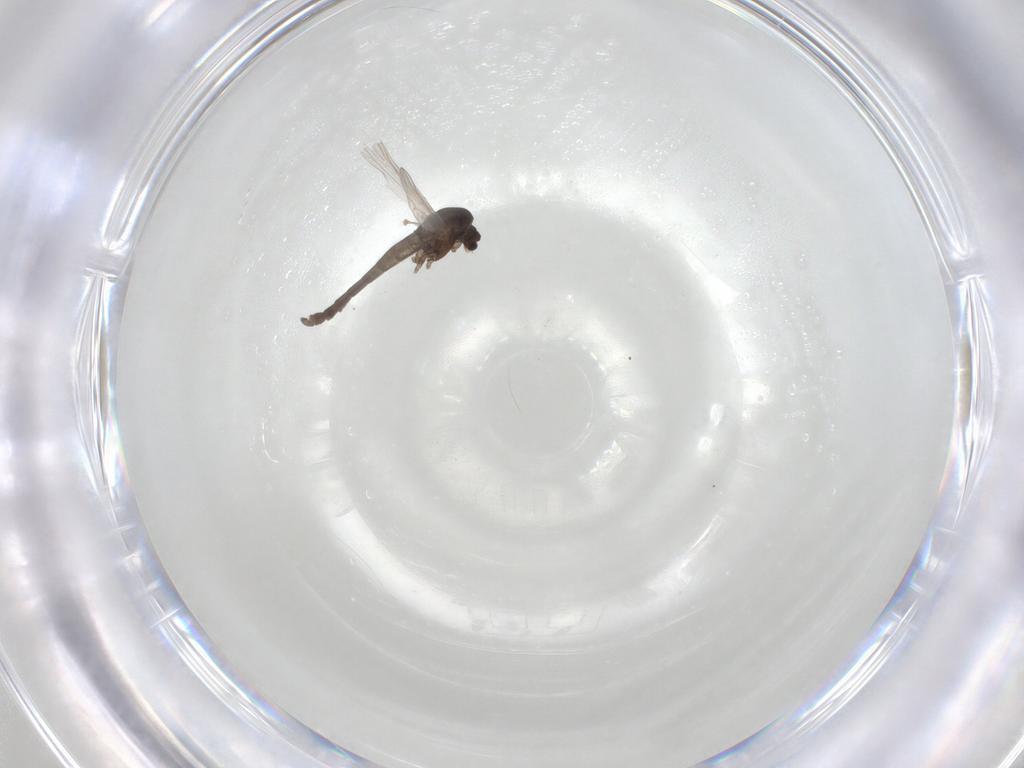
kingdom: Animalia
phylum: Arthropoda
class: Insecta
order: Diptera
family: Chironomidae
